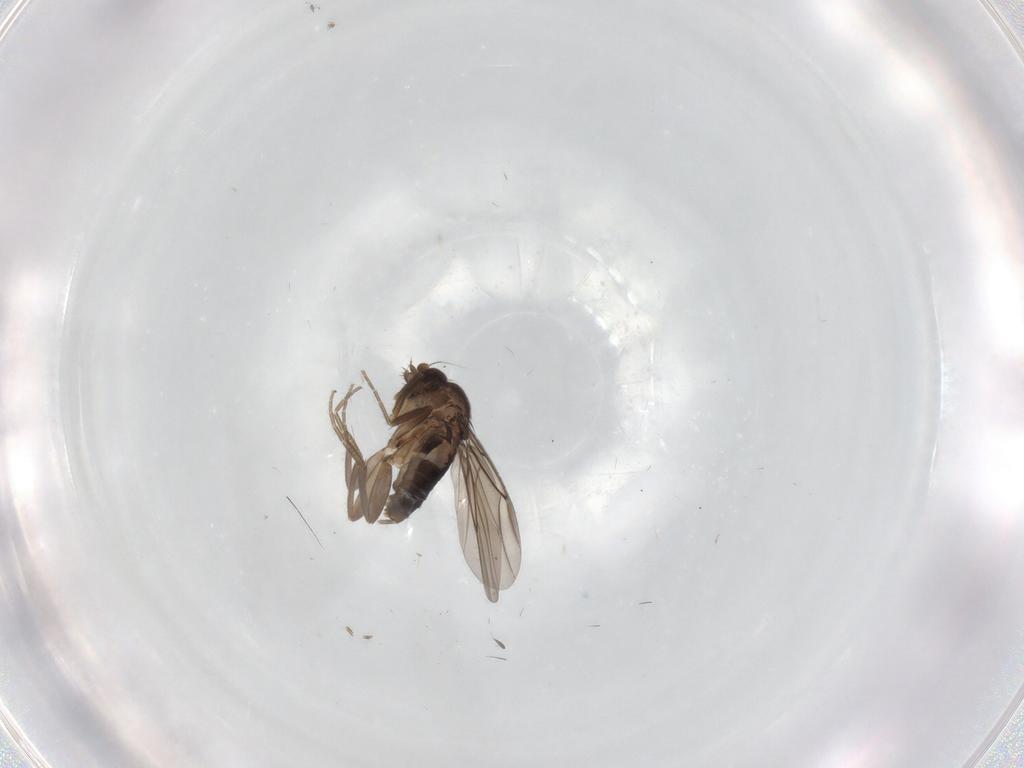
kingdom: Animalia
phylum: Arthropoda
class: Insecta
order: Diptera
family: Phoridae
